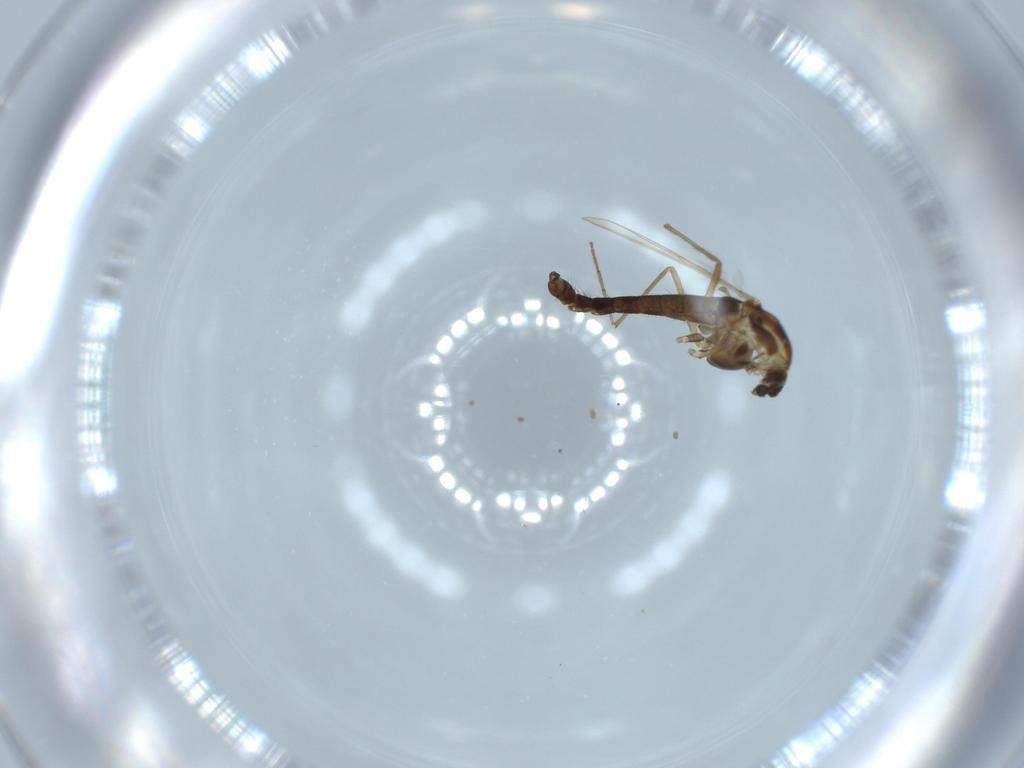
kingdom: Animalia
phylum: Arthropoda
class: Insecta
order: Diptera
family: Chironomidae
